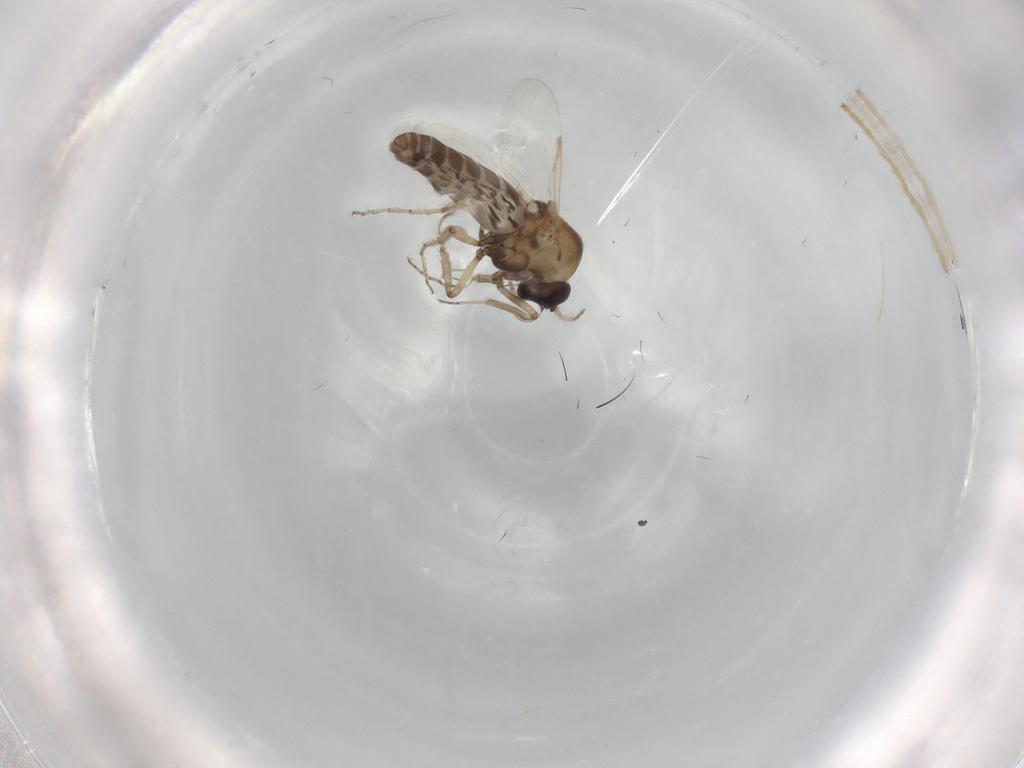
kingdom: Animalia
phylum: Arthropoda
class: Insecta
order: Diptera
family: Ceratopogonidae
